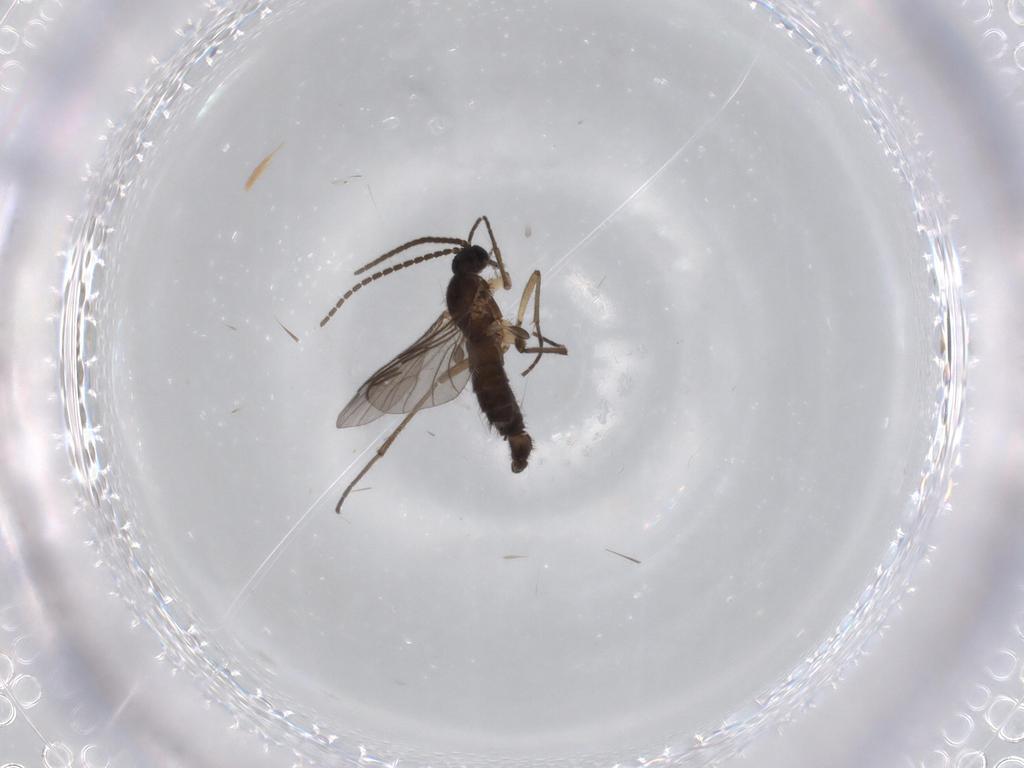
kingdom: Animalia
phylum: Arthropoda
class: Insecta
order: Diptera
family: Sciaridae
